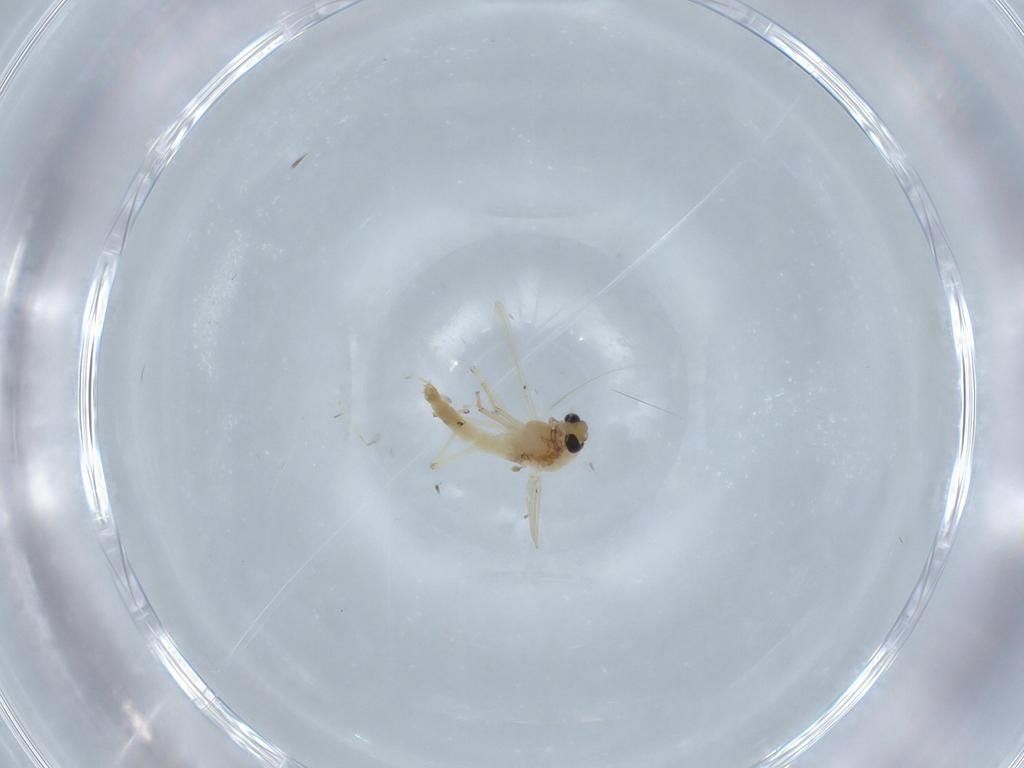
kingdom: Animalia
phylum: Arthropoda
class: Insecta
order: Diptera
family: Chironomidae
